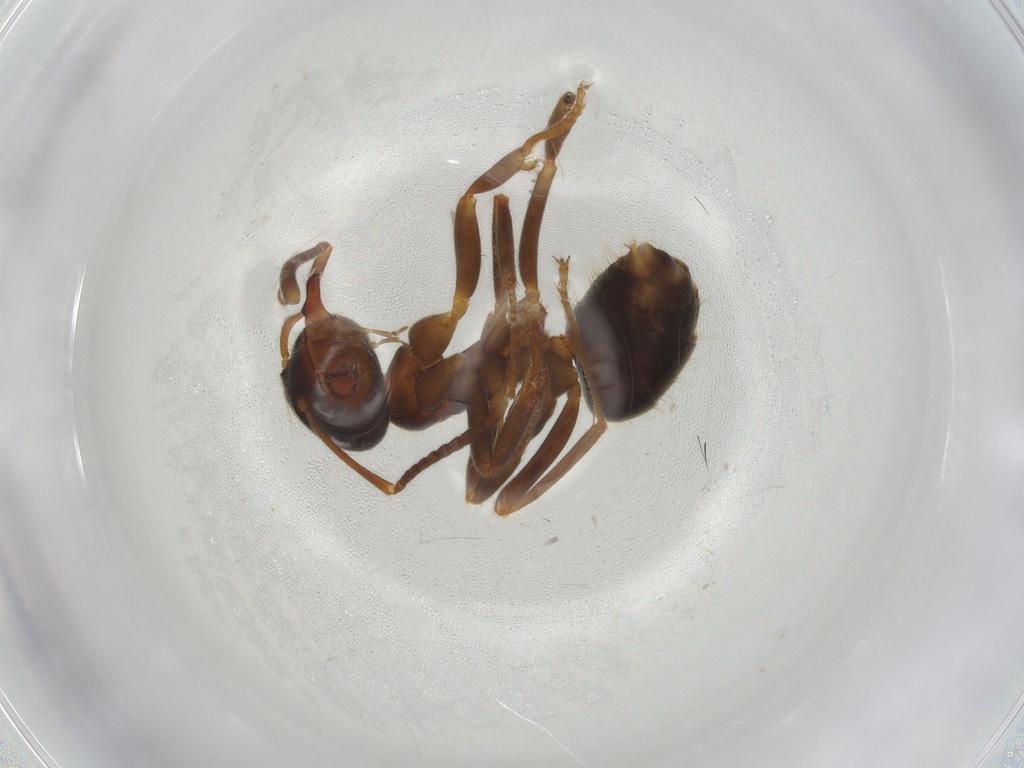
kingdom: Animalia
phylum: Arthropoda
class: Insecta
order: Hymenoptera
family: Formicidae
